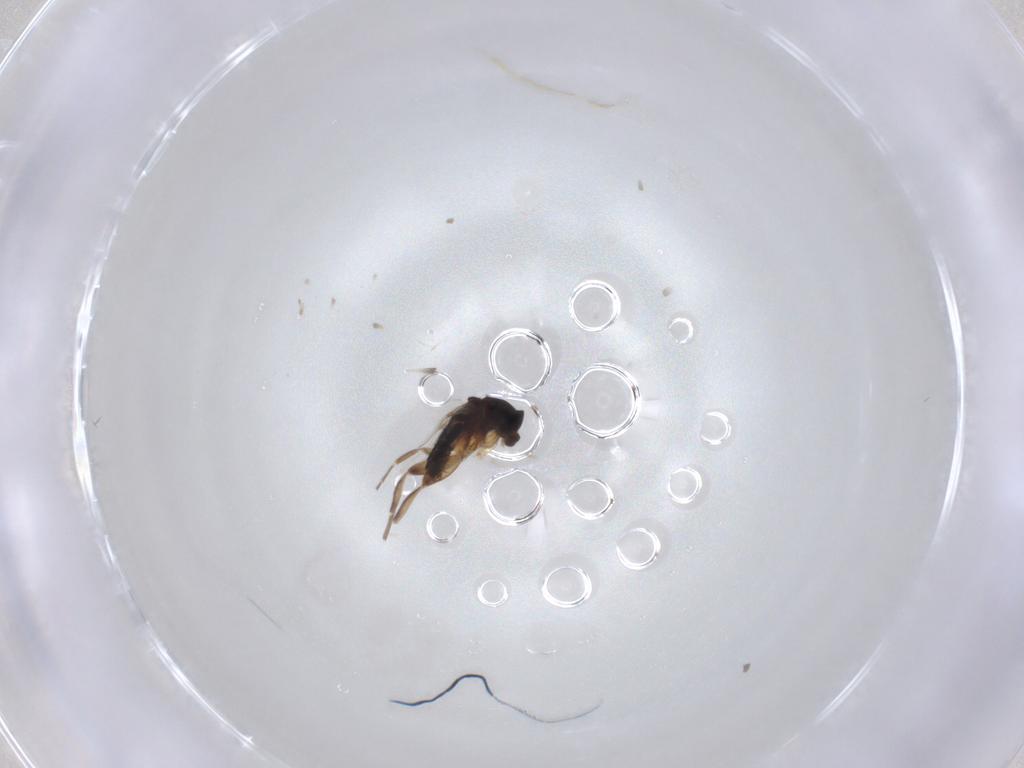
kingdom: Animalia
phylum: Arthropoda
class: Insecta
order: Diptera
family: Phoridae
